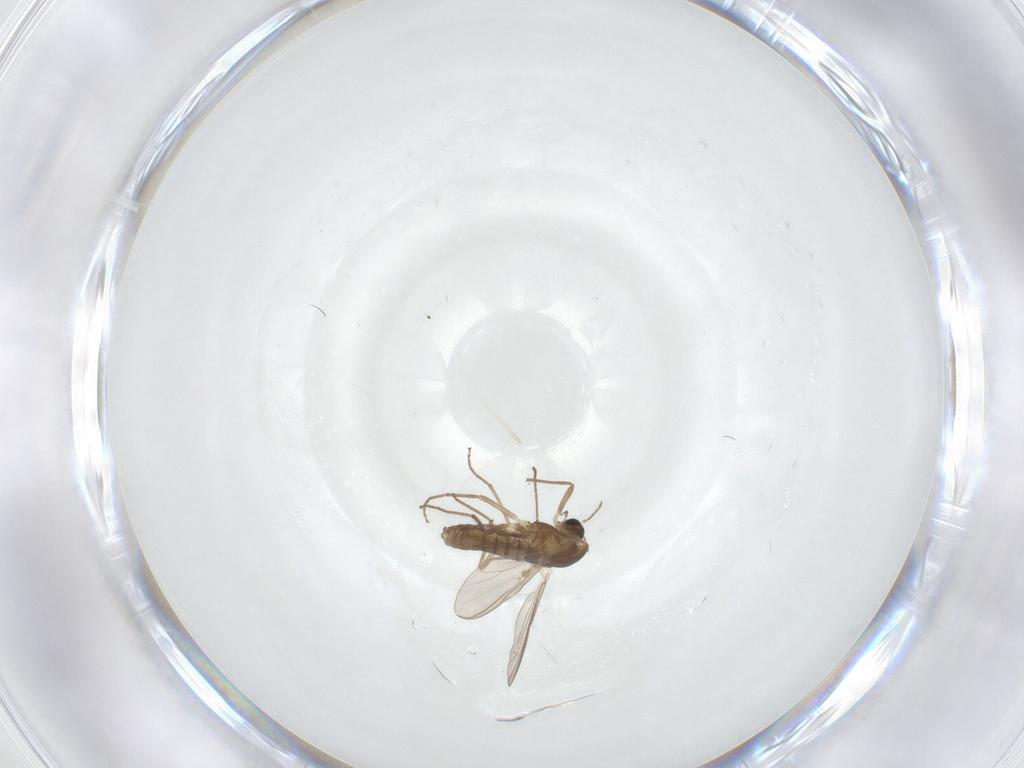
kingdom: Animalia
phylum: Arthropoda
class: Insecta
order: Diptera
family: Chironomidae
